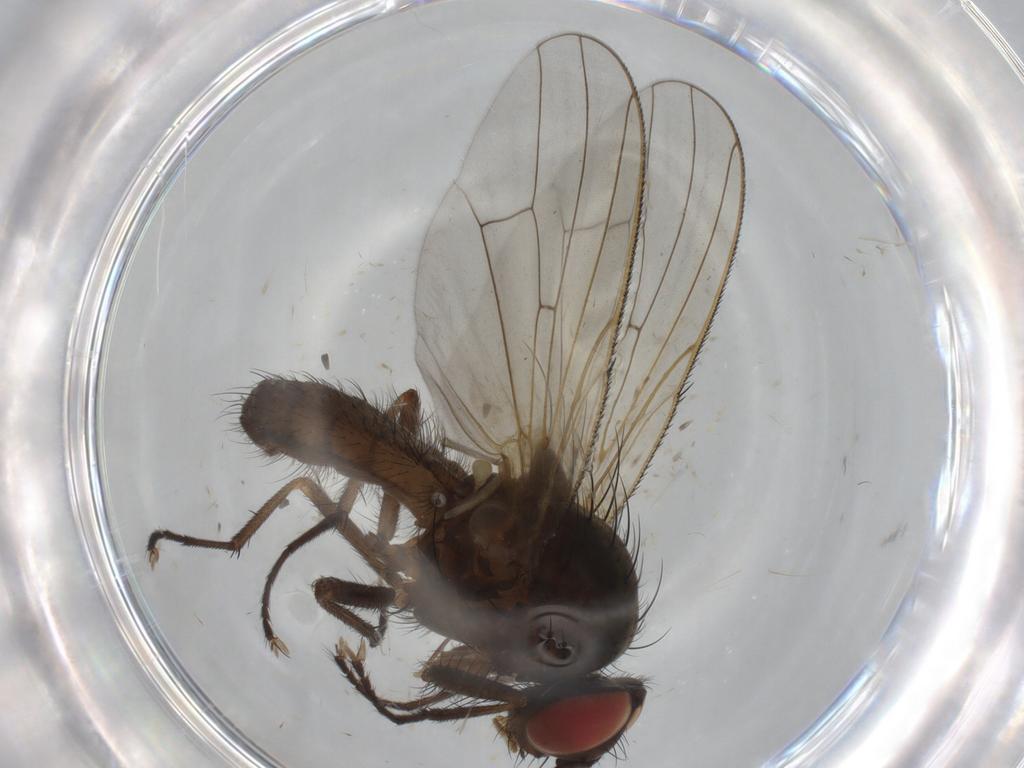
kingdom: Animalia
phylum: Arthropoda
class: Insecta
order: Diptera
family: Anthomyiidae
